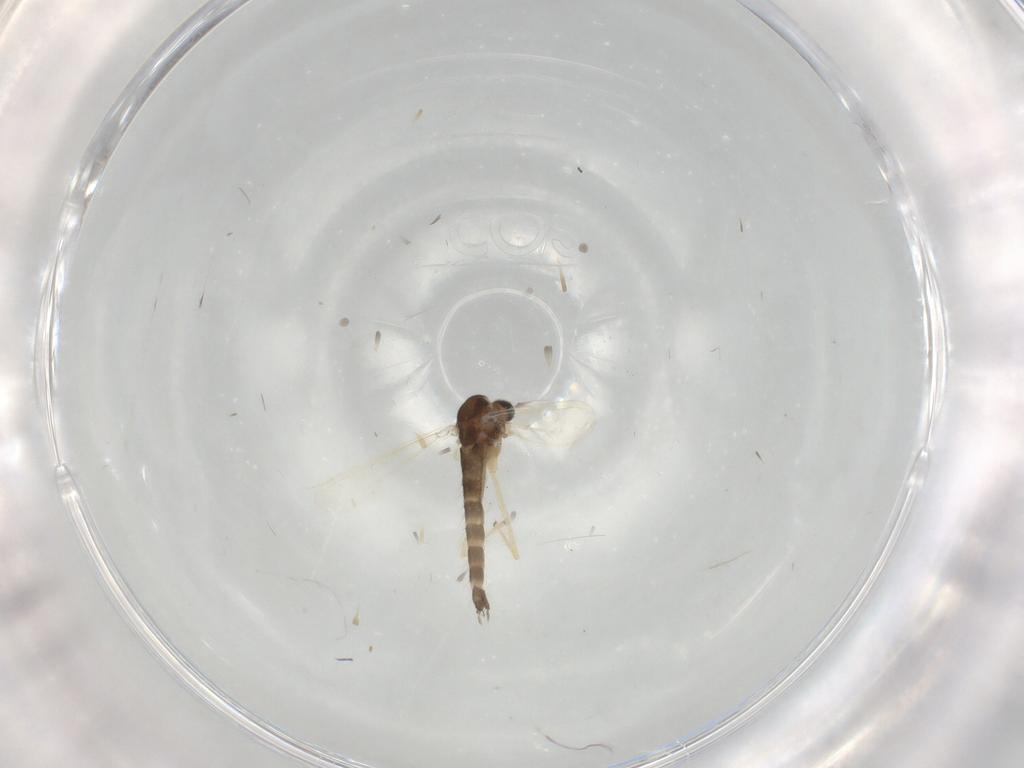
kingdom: Animalia
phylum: Arthropoda
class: Insecta
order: Diptera
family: Chironomidae
